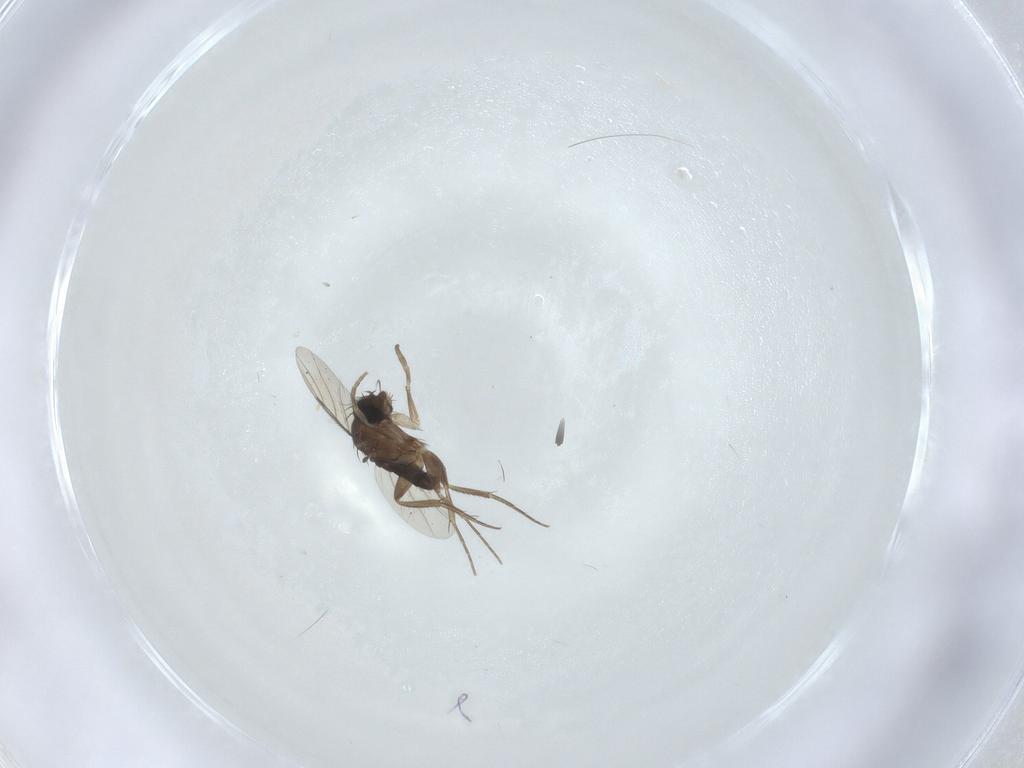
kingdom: Animalia
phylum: Arthropoda
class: Insecta
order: Diptera
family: Phoridae
